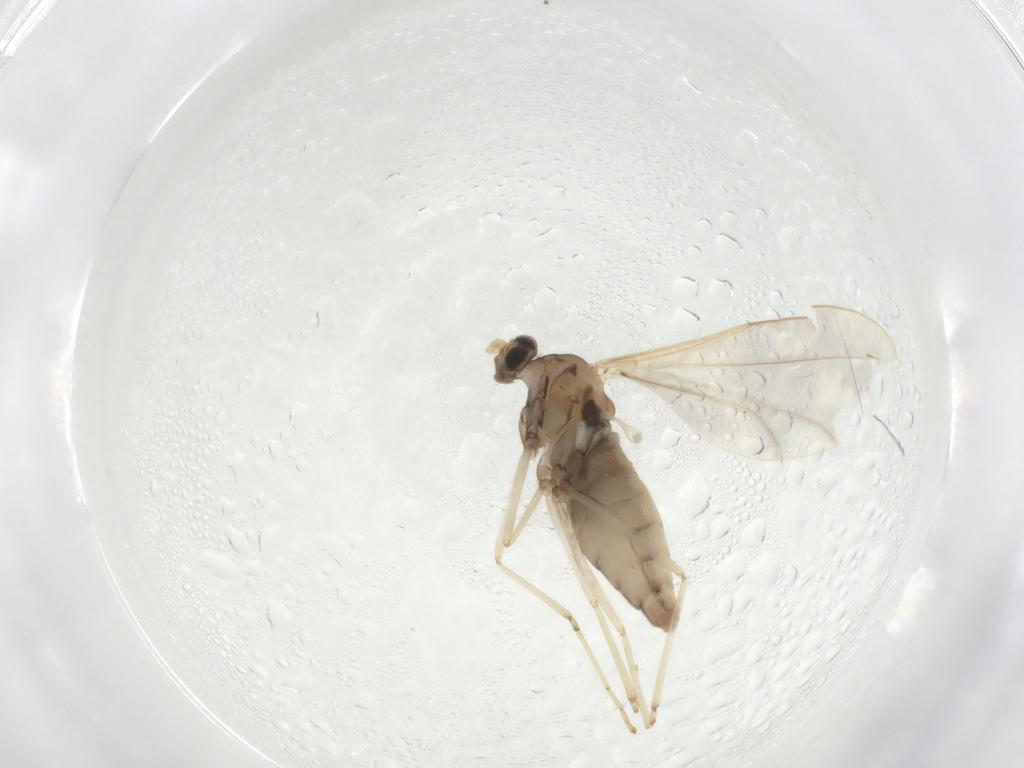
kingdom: Animalia
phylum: Arthropoda
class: Insecta
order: Diptera
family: Cecidomyiidae
